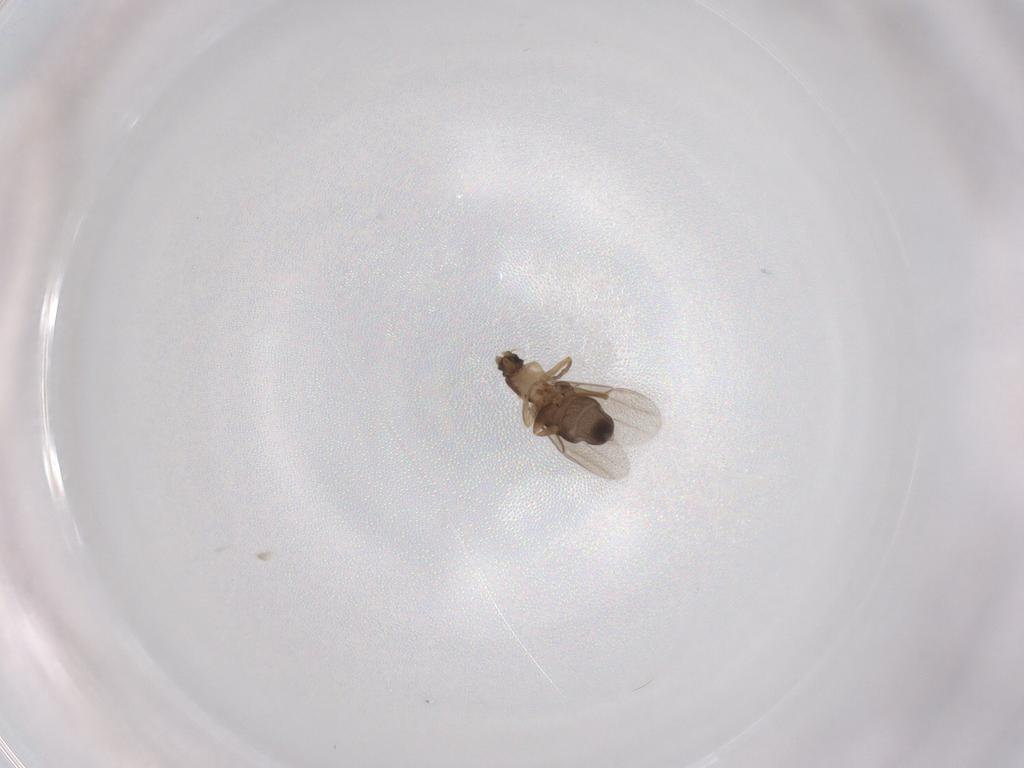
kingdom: Animalia
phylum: Arthropoda
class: Insecta
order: Diptera
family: Phoridae
